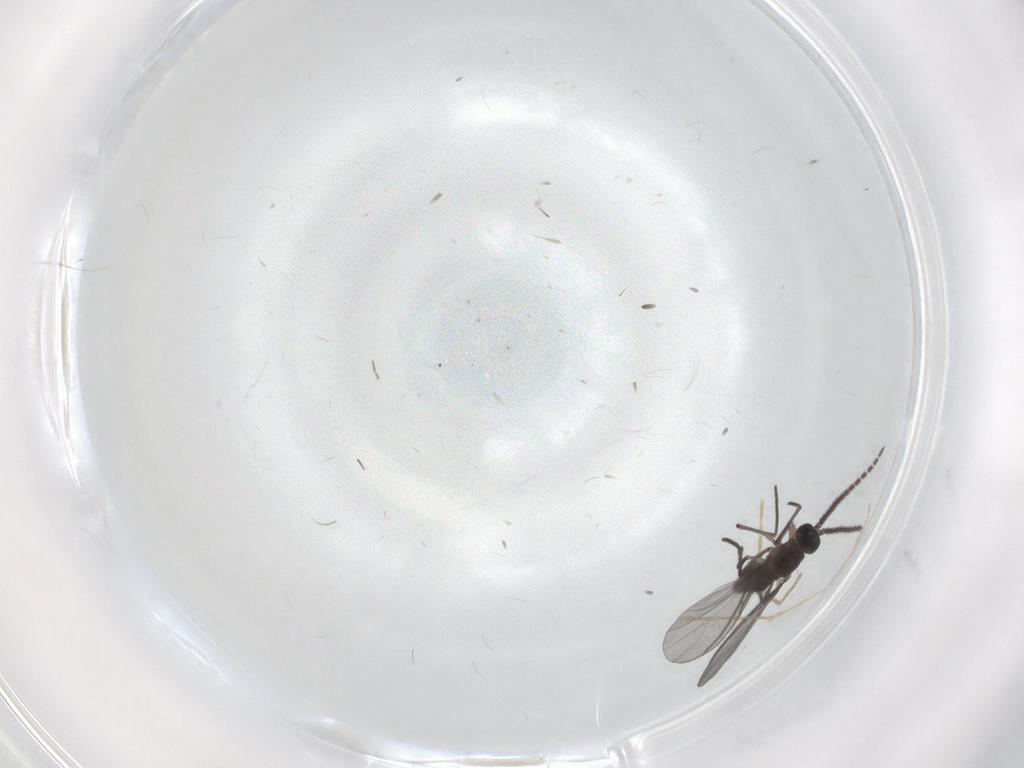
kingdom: Animalia
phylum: Arthropoda
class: Insecta
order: Diptera
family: Chironomidae
